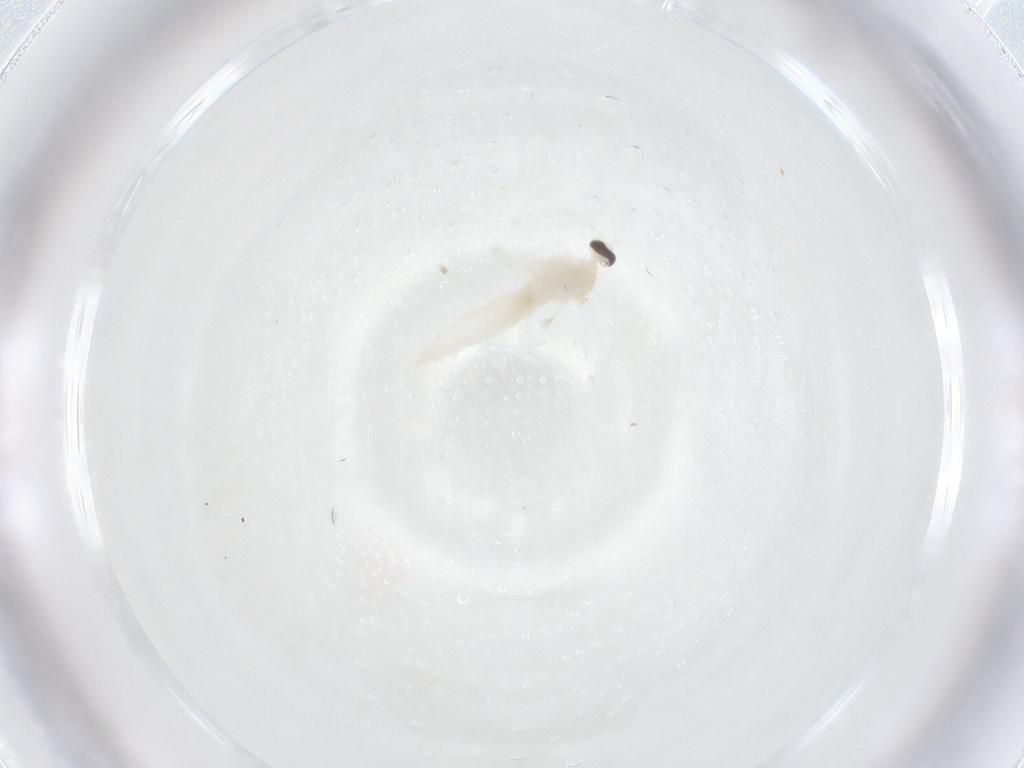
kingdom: Animalia
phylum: Arthropoda
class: Insecta
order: Diptera
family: Cecidomyiidae
